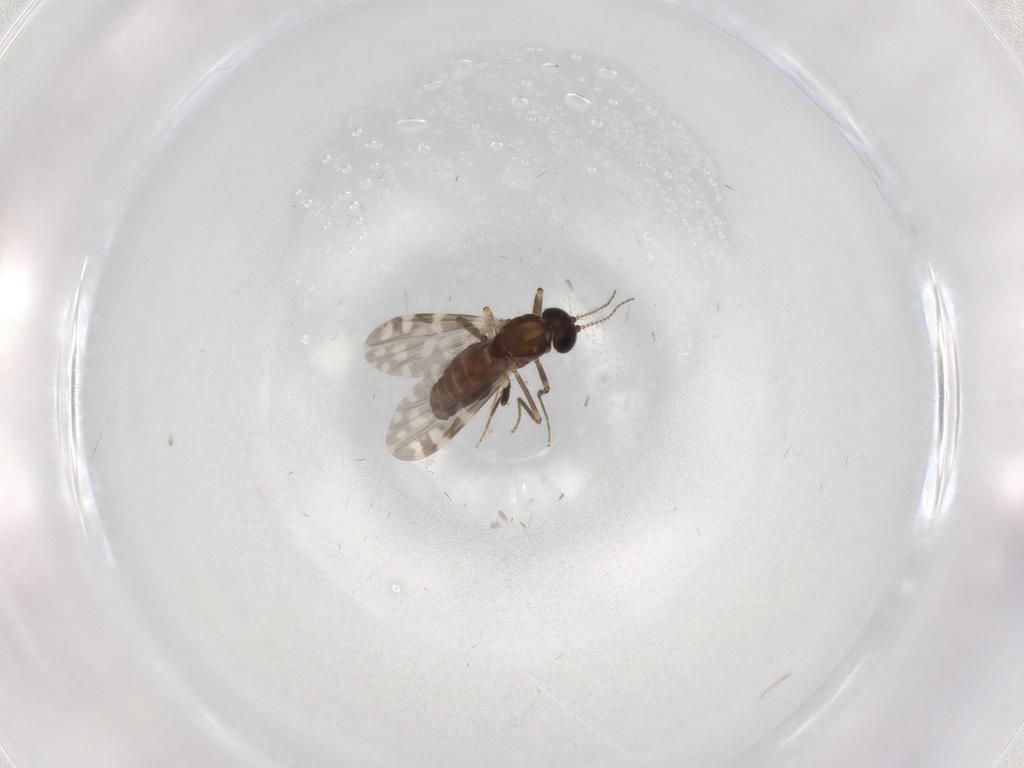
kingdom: Animalia
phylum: Arthropoda
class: Insecta
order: Diptera
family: Ceratopogonidae
